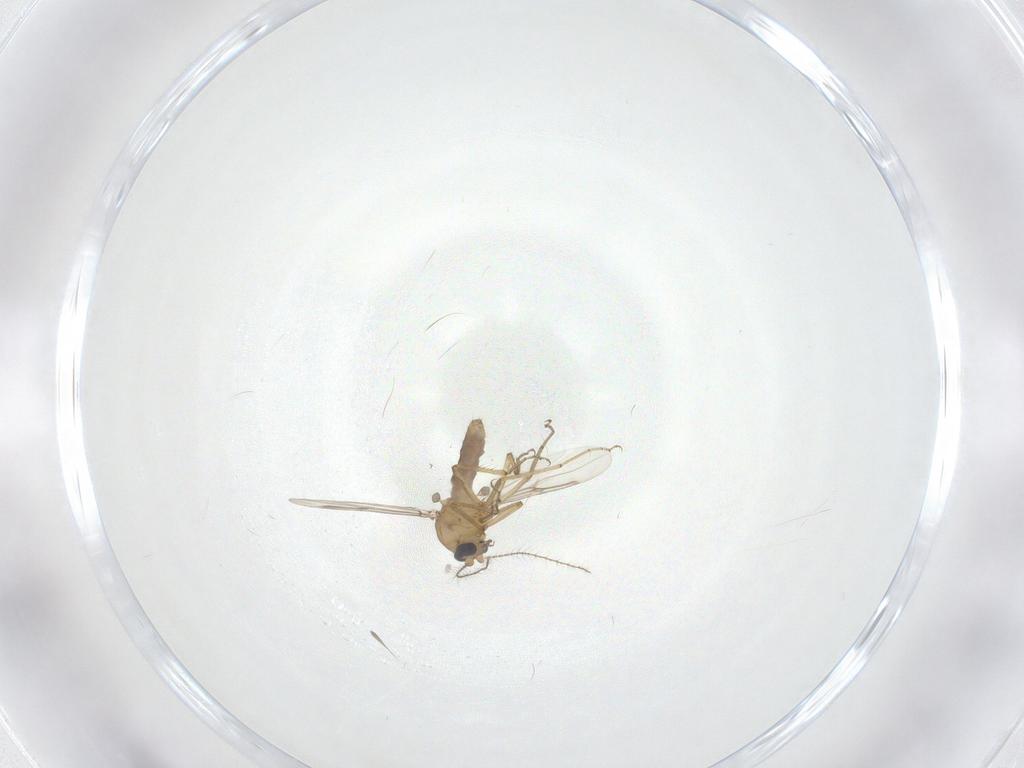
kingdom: Animalia
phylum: Arthropoda
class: Insecta
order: Diptera
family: Ceratopogonidae
